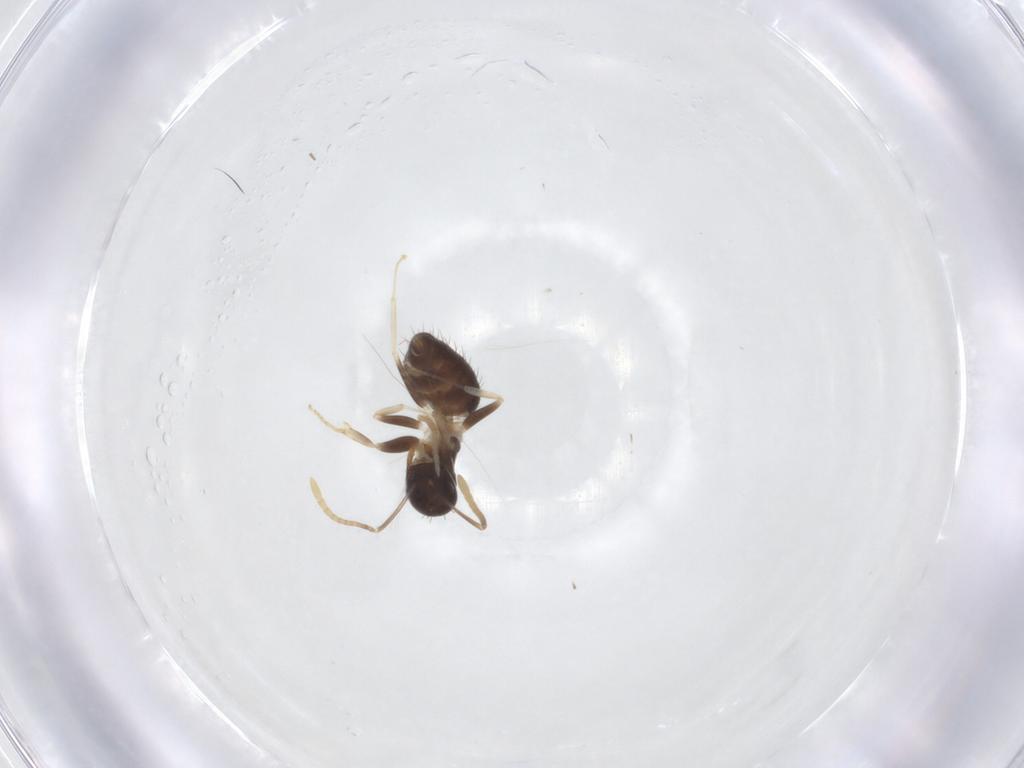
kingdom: Animalia
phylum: Arthropoda
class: Insecta
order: Hymenoptera
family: Formicidae
